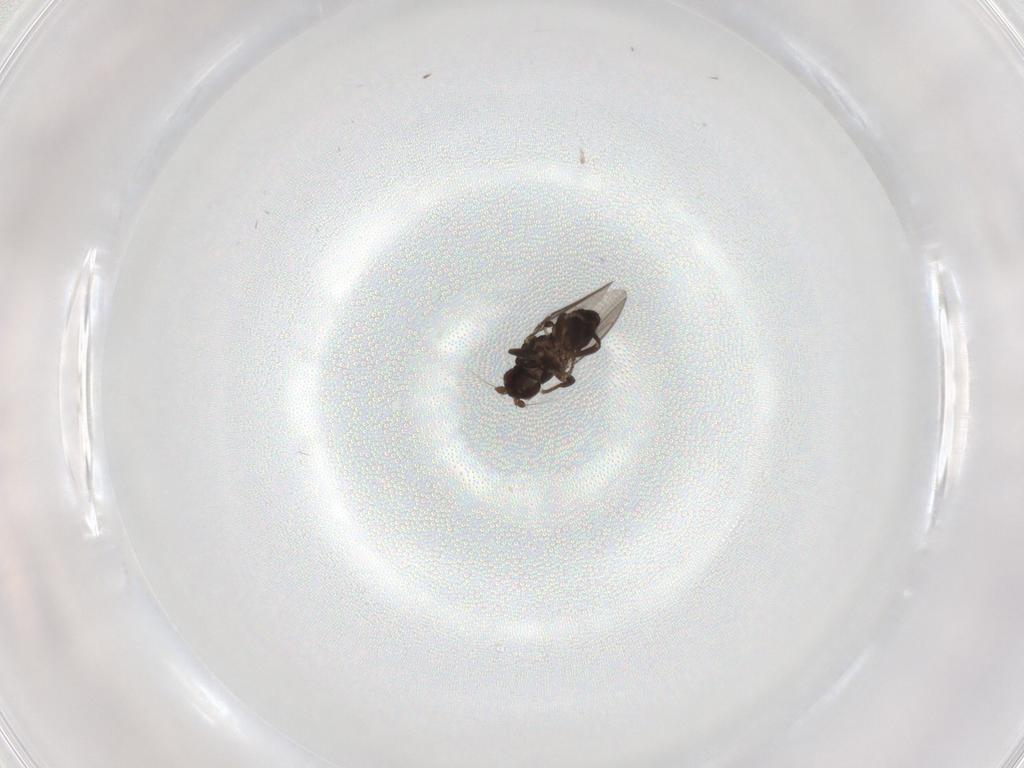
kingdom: Animalia
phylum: Arthropoda
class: Insecta
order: Diptera
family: Sphaeroceridae
